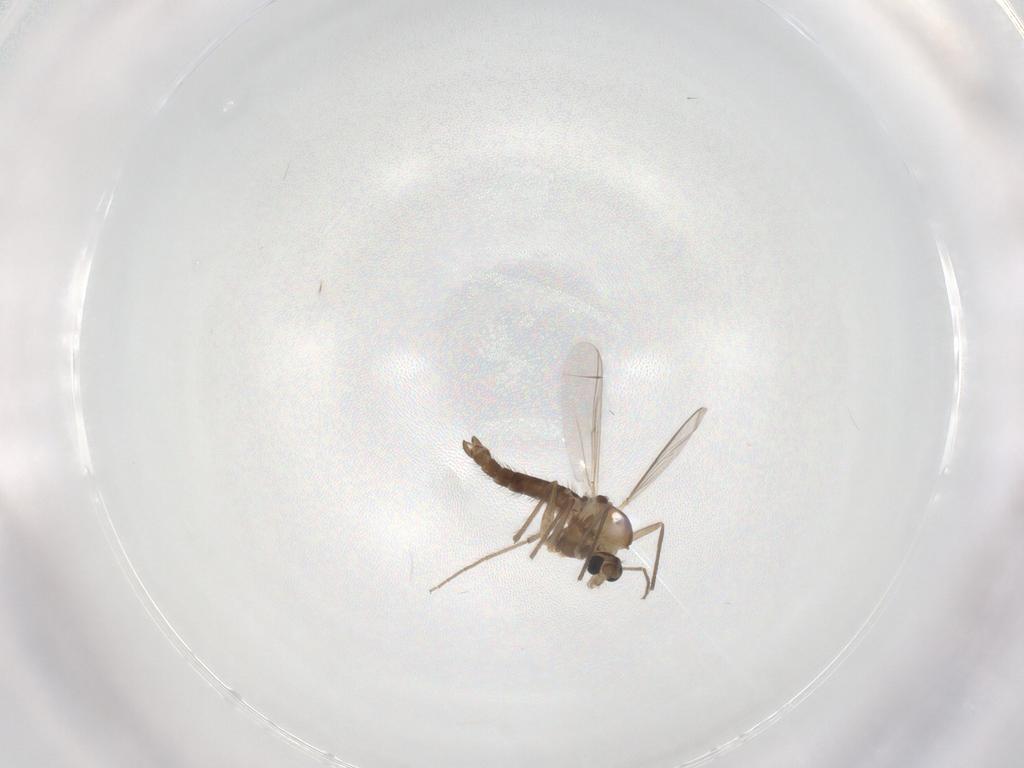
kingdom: Animalia
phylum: Arthropoda
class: Insecta
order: Diptera
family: Chironomidae
